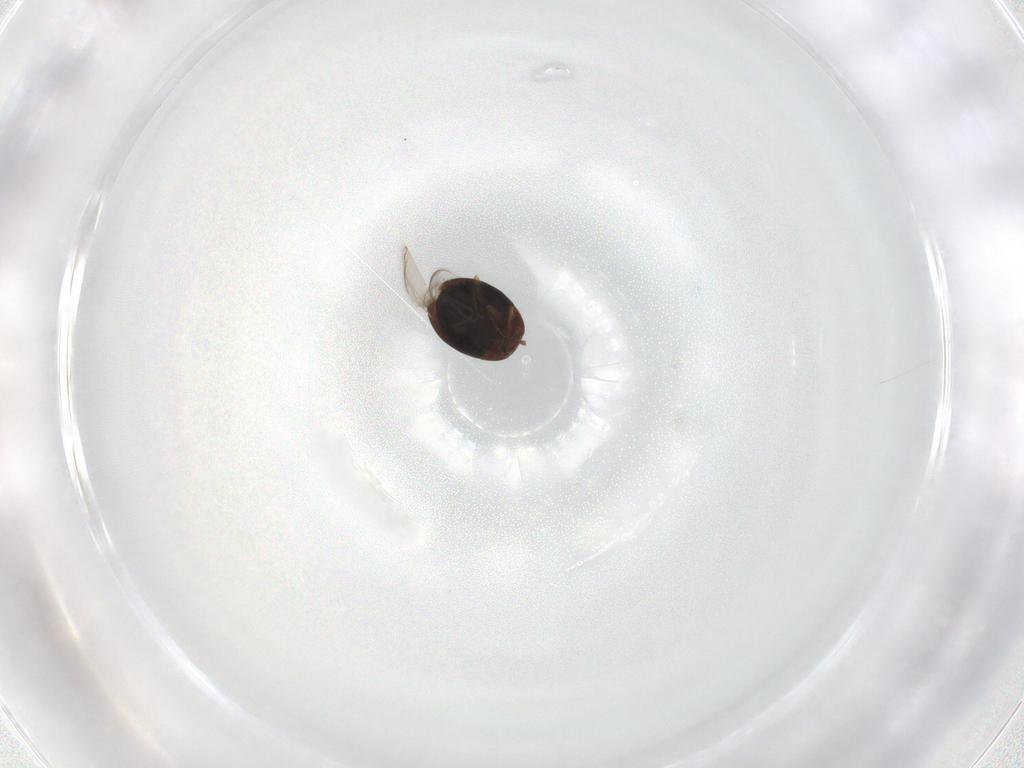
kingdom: Animalia
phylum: Arthropoda
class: Insecta
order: Coleoptera
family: Corylophidae
